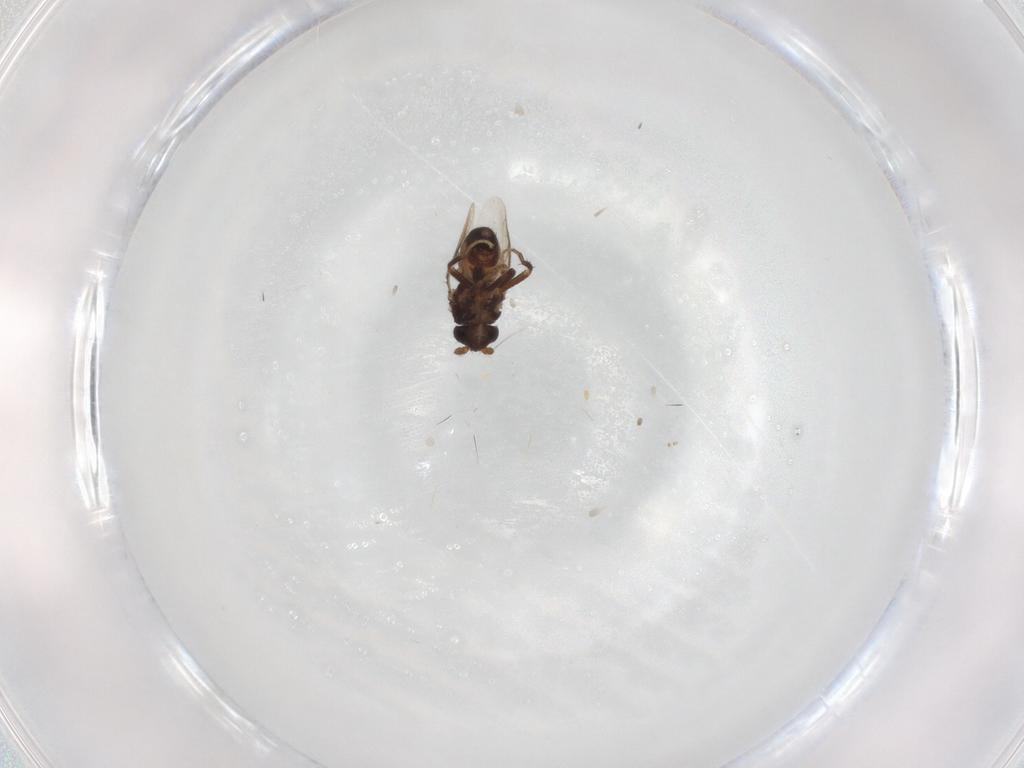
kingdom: Animalia
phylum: Arthropoda
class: Insecta
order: Diptera
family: Sphaeroceridae
